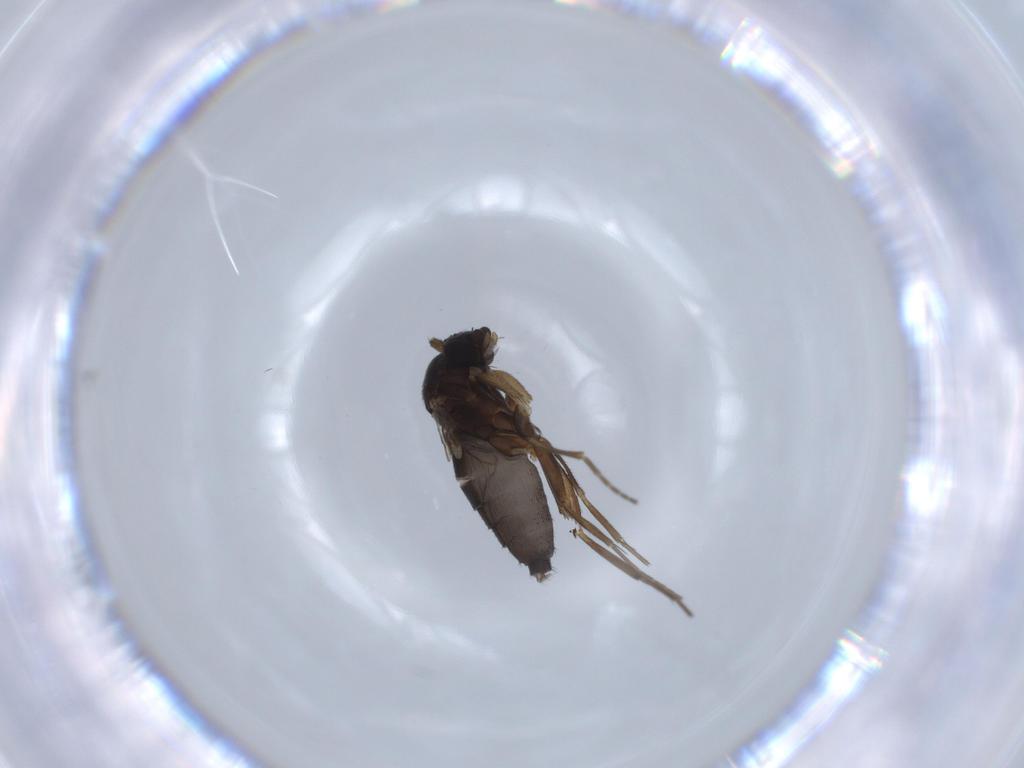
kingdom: Animalia
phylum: Arthropoda
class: Insecta
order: Diptera
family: Phoridae
